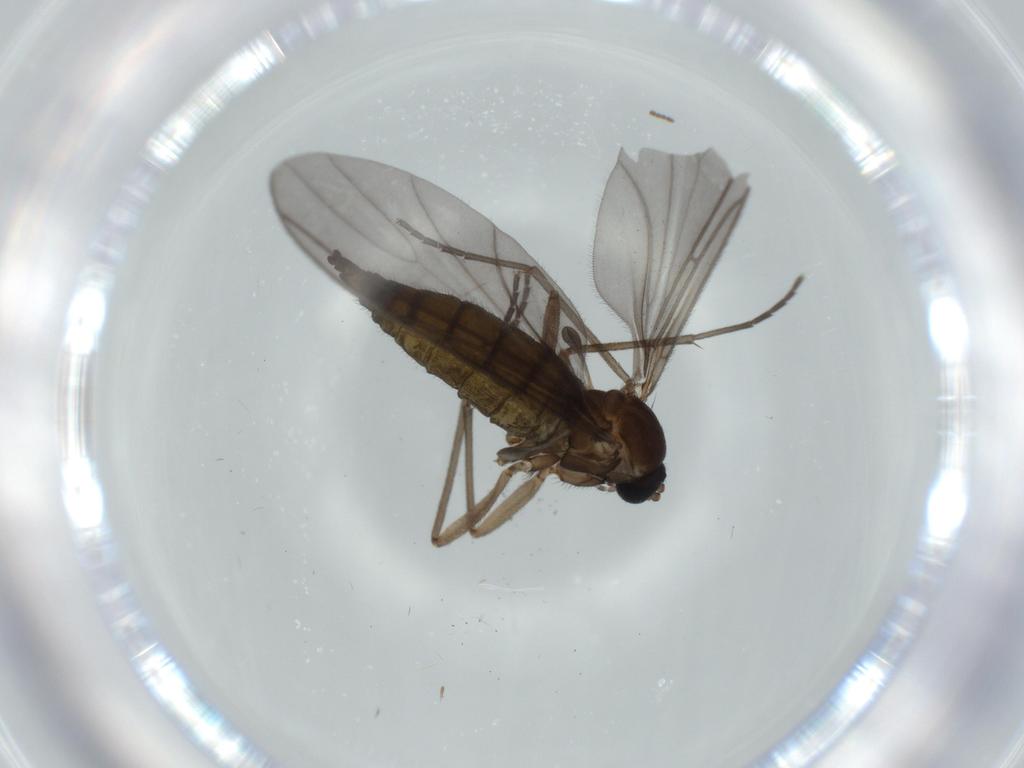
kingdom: Animalia
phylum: Arthropoda
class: Insecta
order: Diptera
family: Sciaridae
